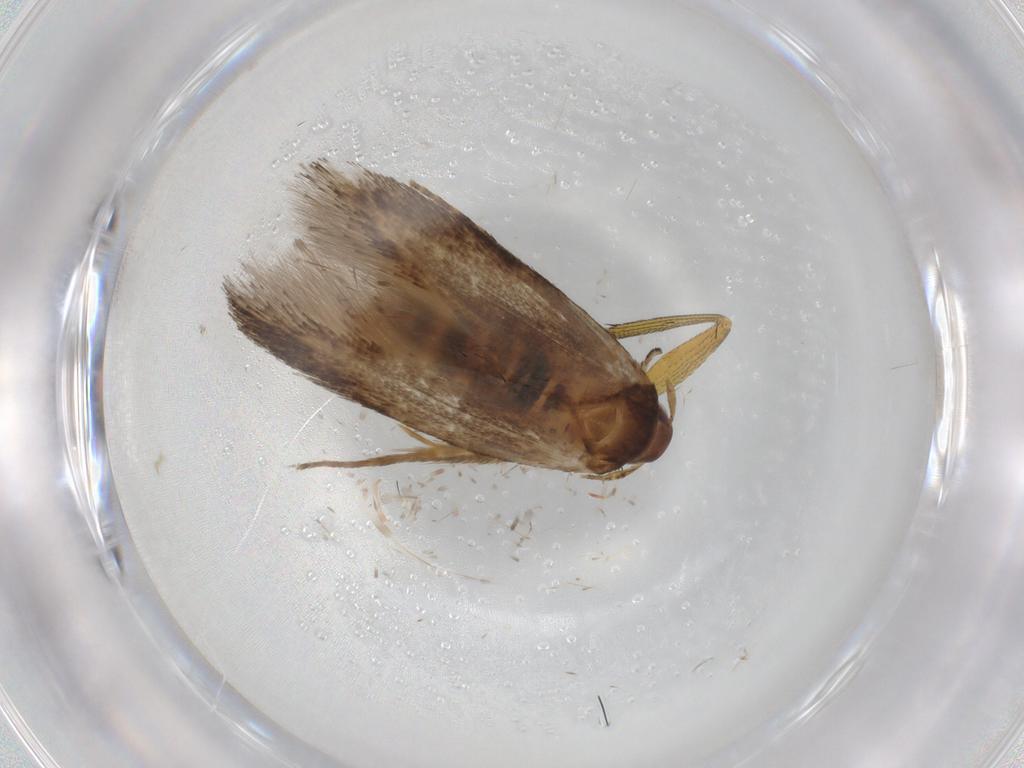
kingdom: Animalia
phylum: Arthropoda
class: Insecta
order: Lepidoptera
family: Cosmopterigidae
